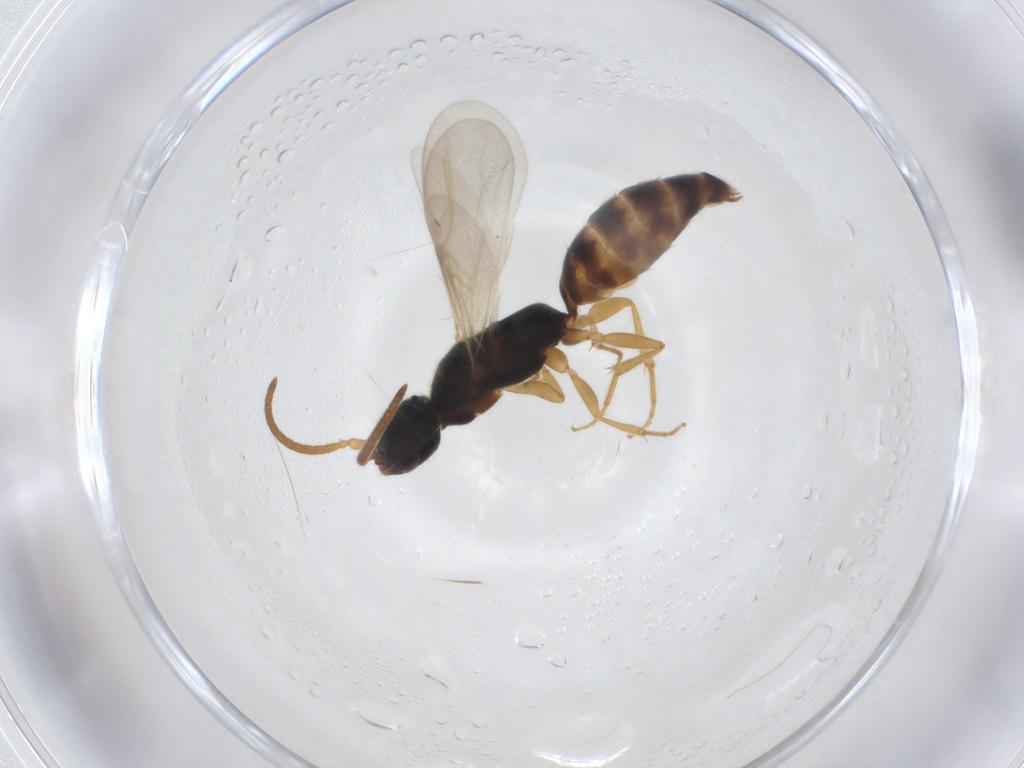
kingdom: Animalia
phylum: Arthropoda
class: Insecta
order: Hymenoptera
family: Bethylidae
